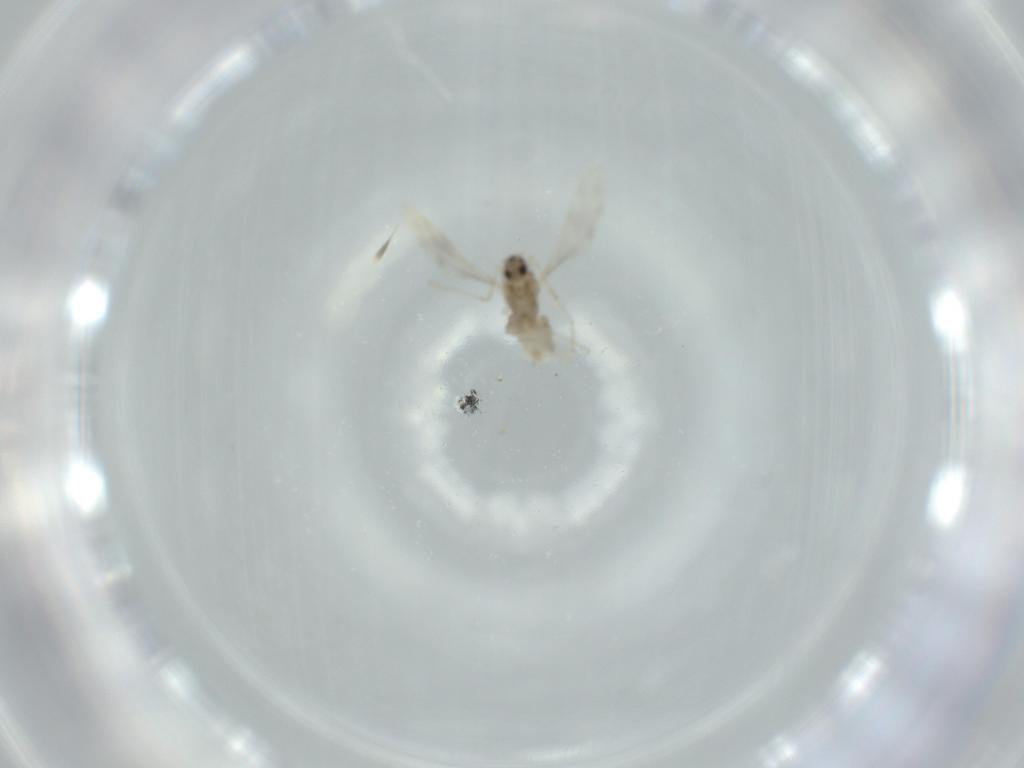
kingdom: Animalia
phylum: Arthropoda
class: Insecta
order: Diptera
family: Cecidomyiidae
